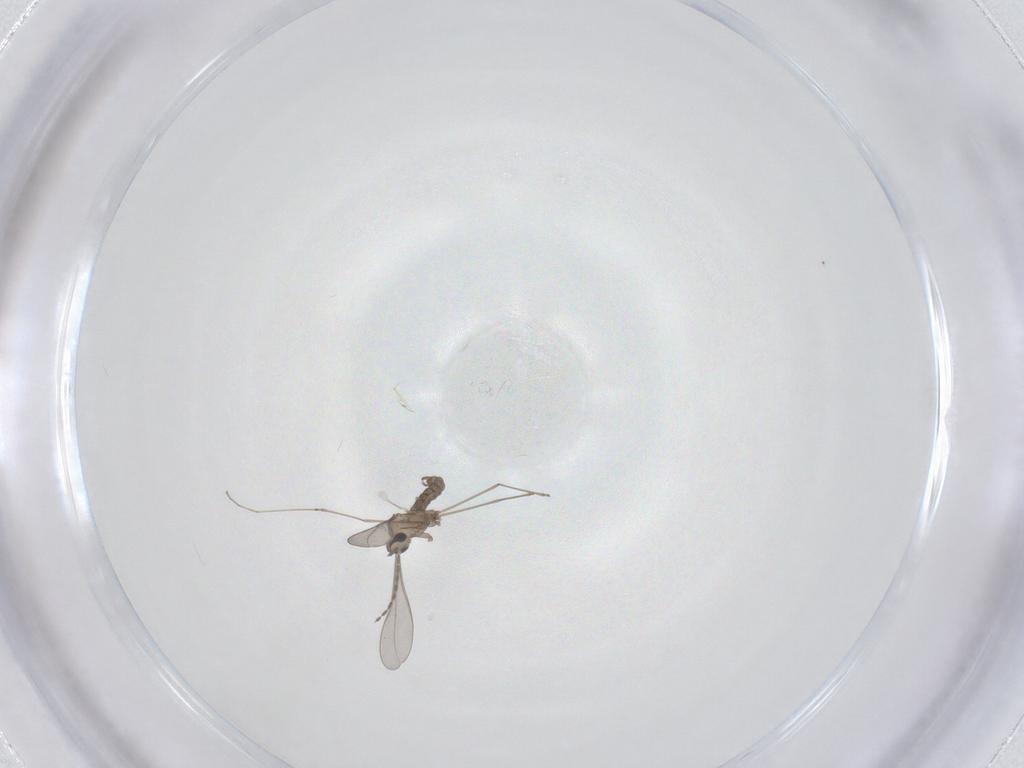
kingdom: Animalia
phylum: Arthropoda
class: Insecta
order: Diptera
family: Cecidomyiidae
